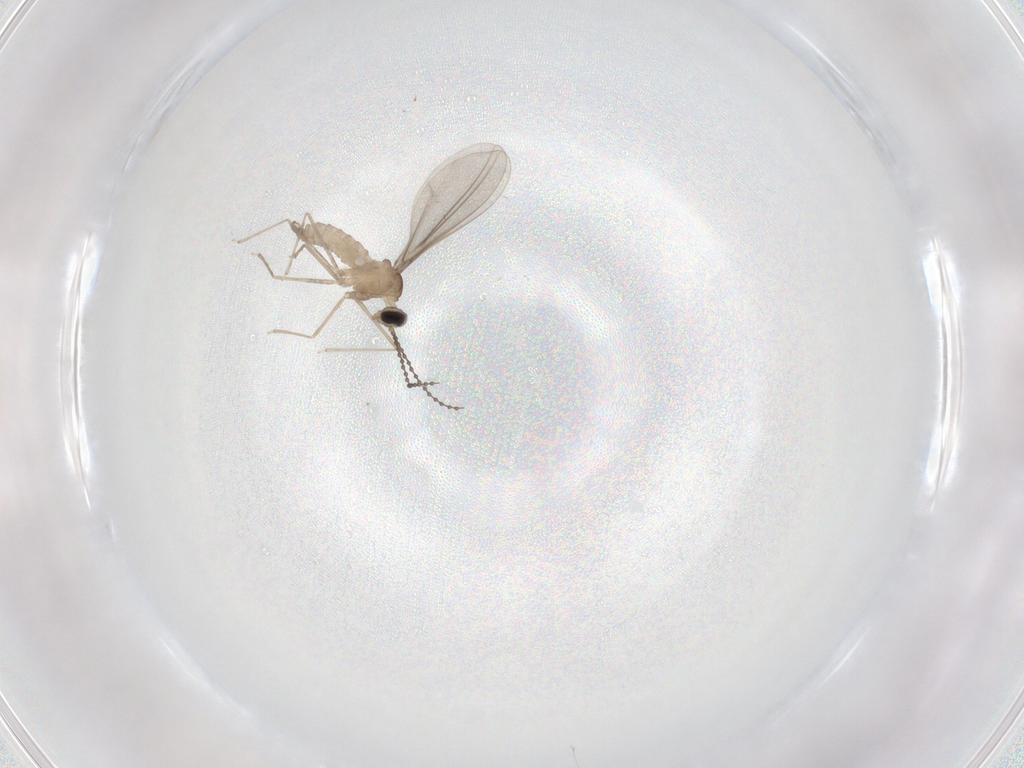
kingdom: Animalia
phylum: Arthropoda
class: Insecta
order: Diptera
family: Cecidomyiidae
